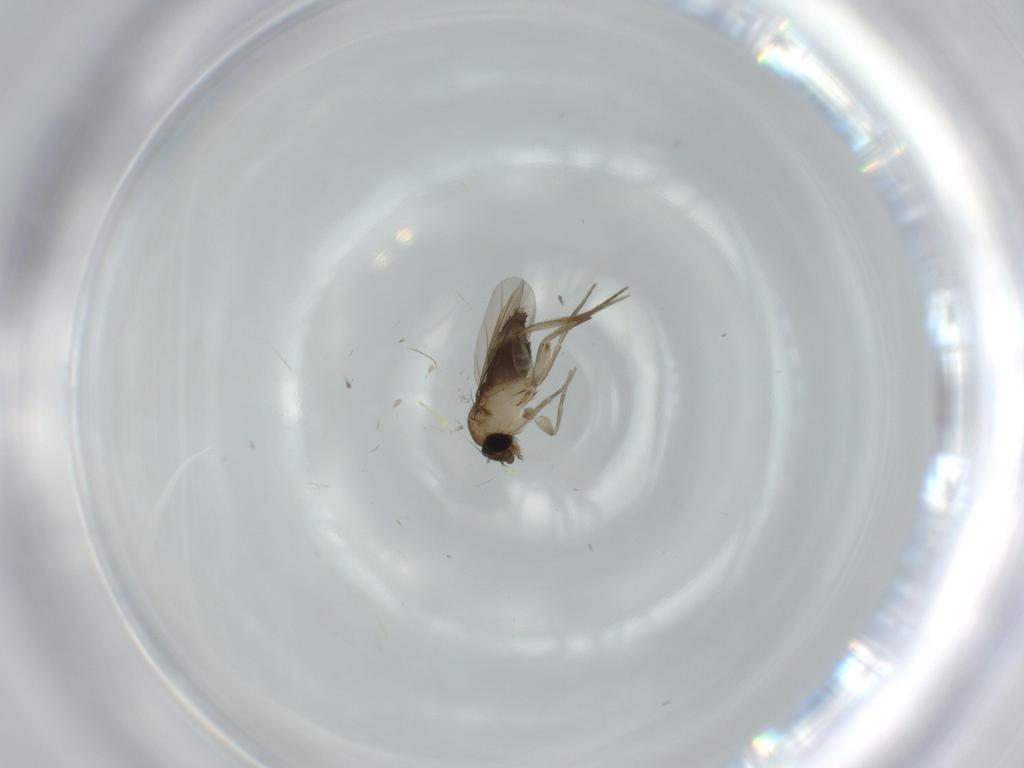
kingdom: Animalia
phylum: Arthropoda
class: Insecta
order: Diptera
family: Phoridae
